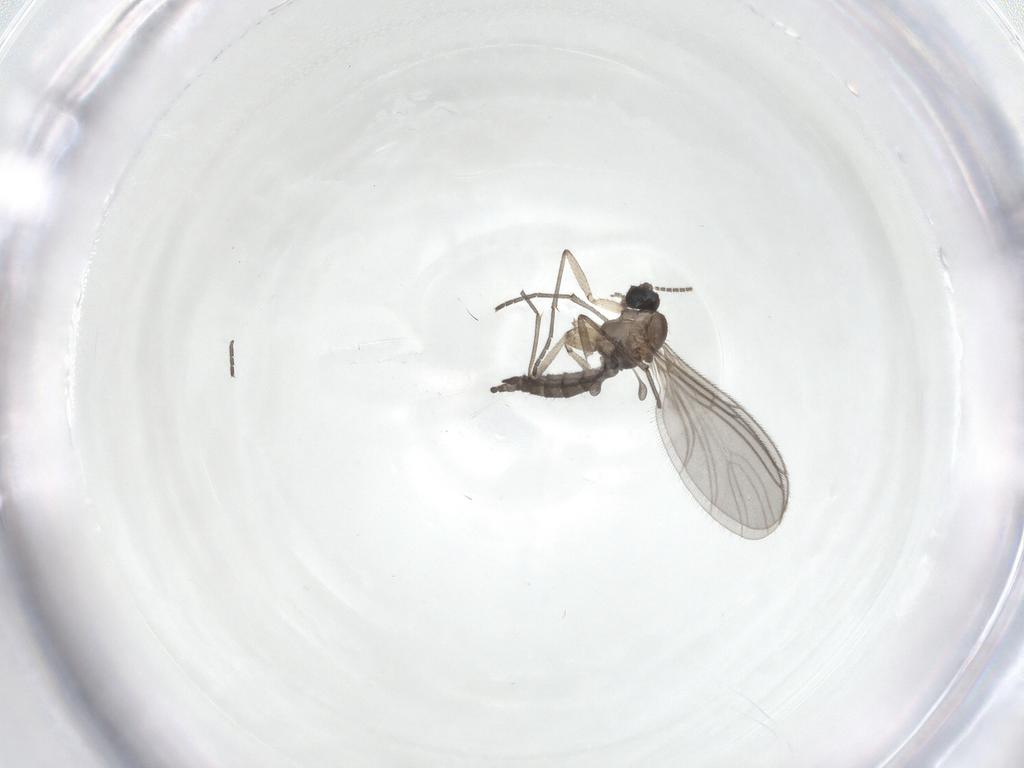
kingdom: Animalia
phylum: Arthropoda
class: Insecta
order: Diptera
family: Sciaridae
